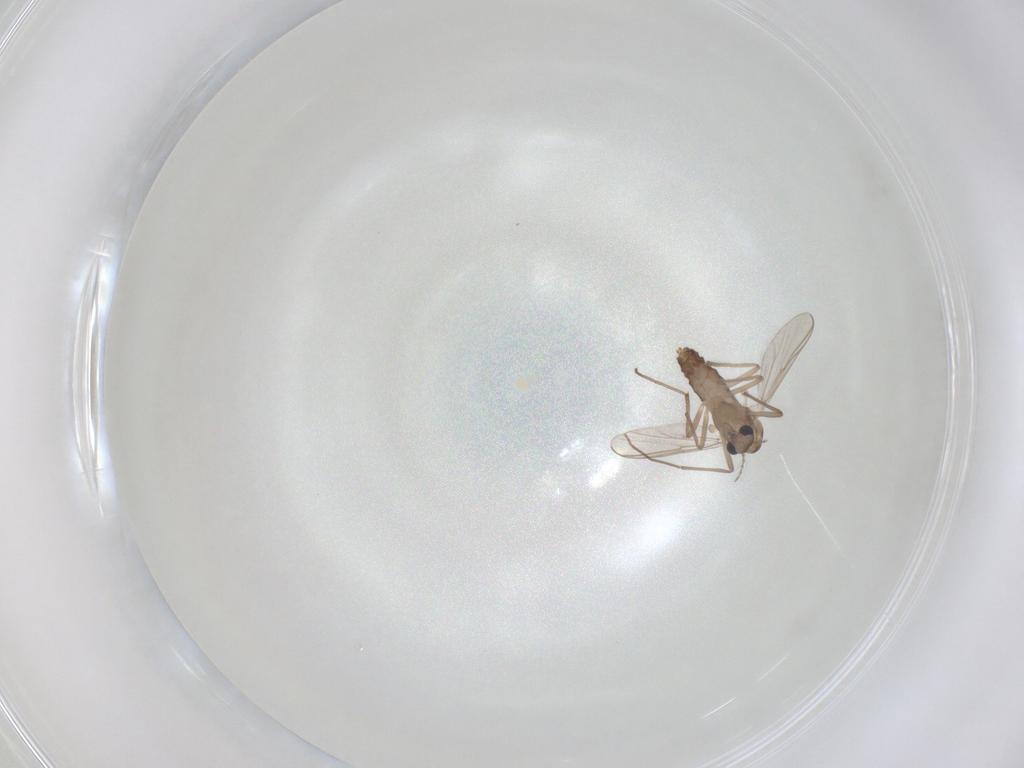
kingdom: Animalia
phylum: Arthropoda
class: Insecta
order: Diptera
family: Chironomidae
